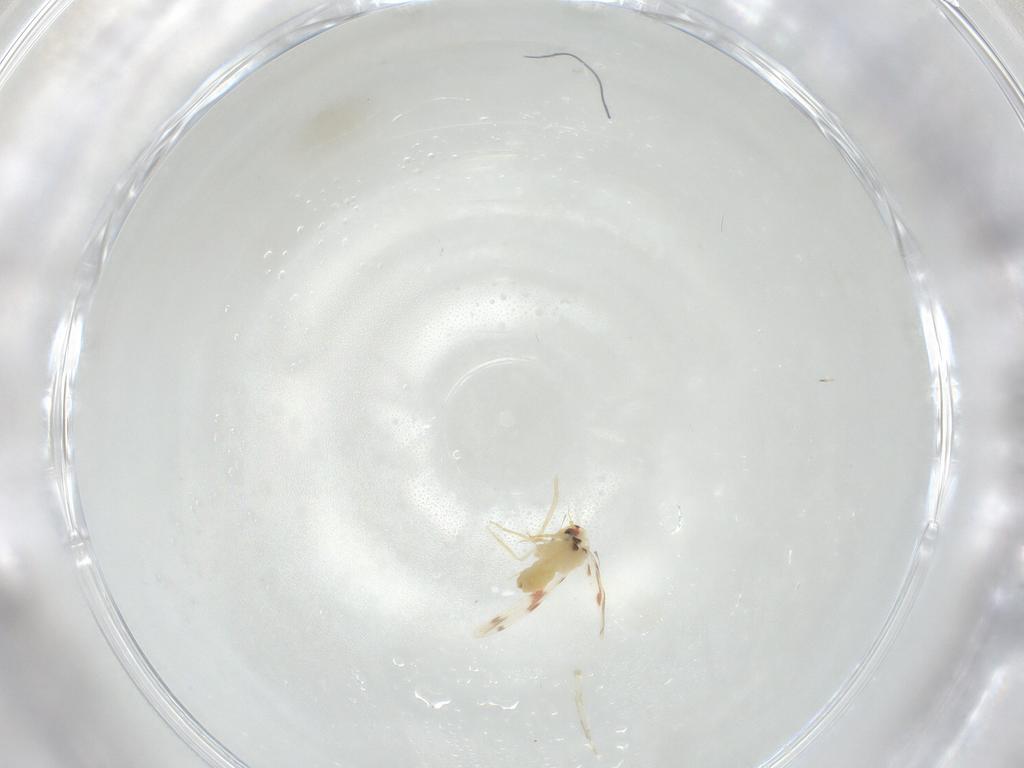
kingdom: Animalia
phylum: Arthropoda
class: Insecta
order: Hemiptera
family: Aleyrodidae
